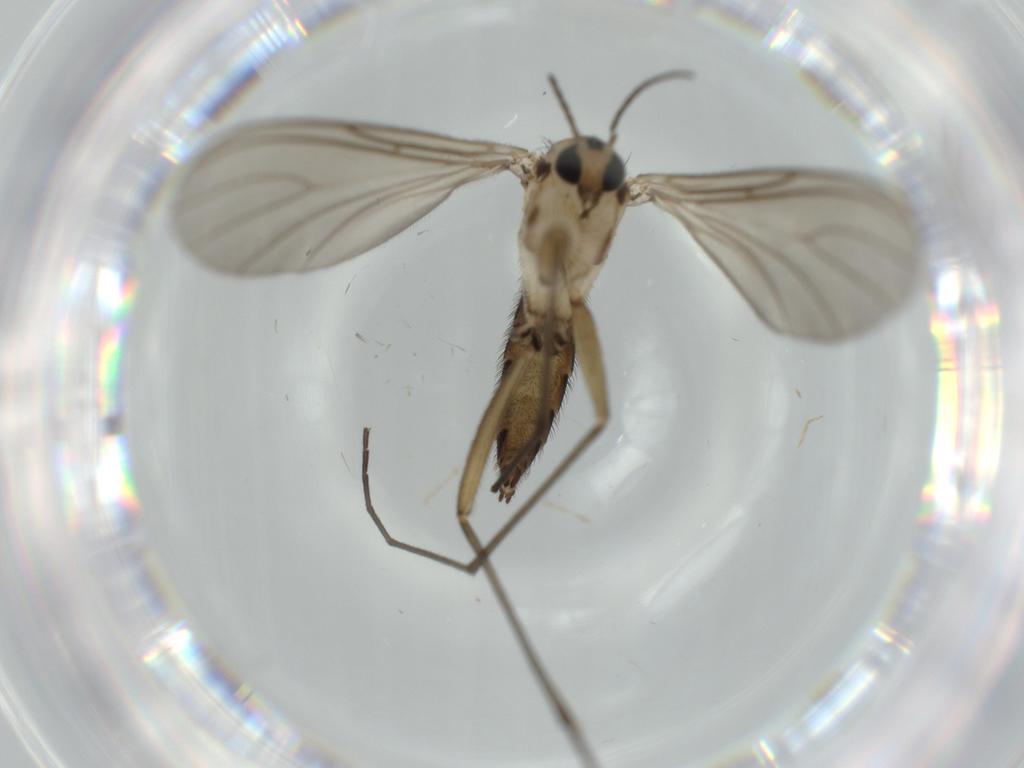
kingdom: Animalia
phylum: Arthropoda
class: Insecta
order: Diptera
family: Sciaridae
